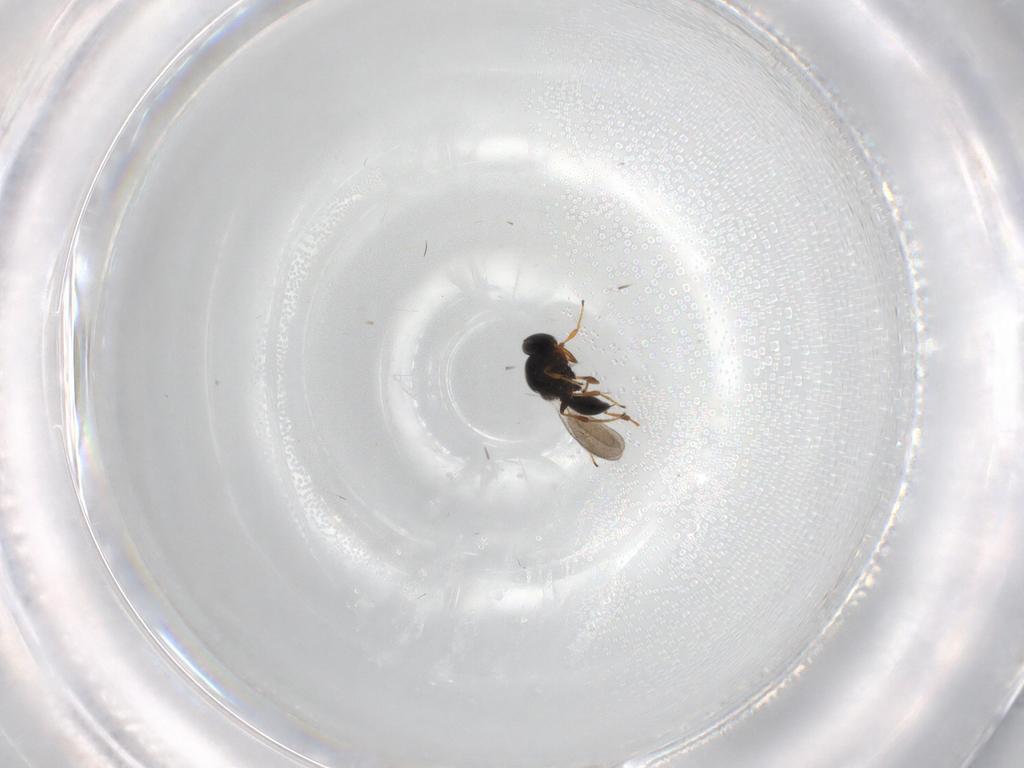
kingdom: Animalia
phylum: Arthropoda
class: Insecta
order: Hymenoptera
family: Platygastridae
